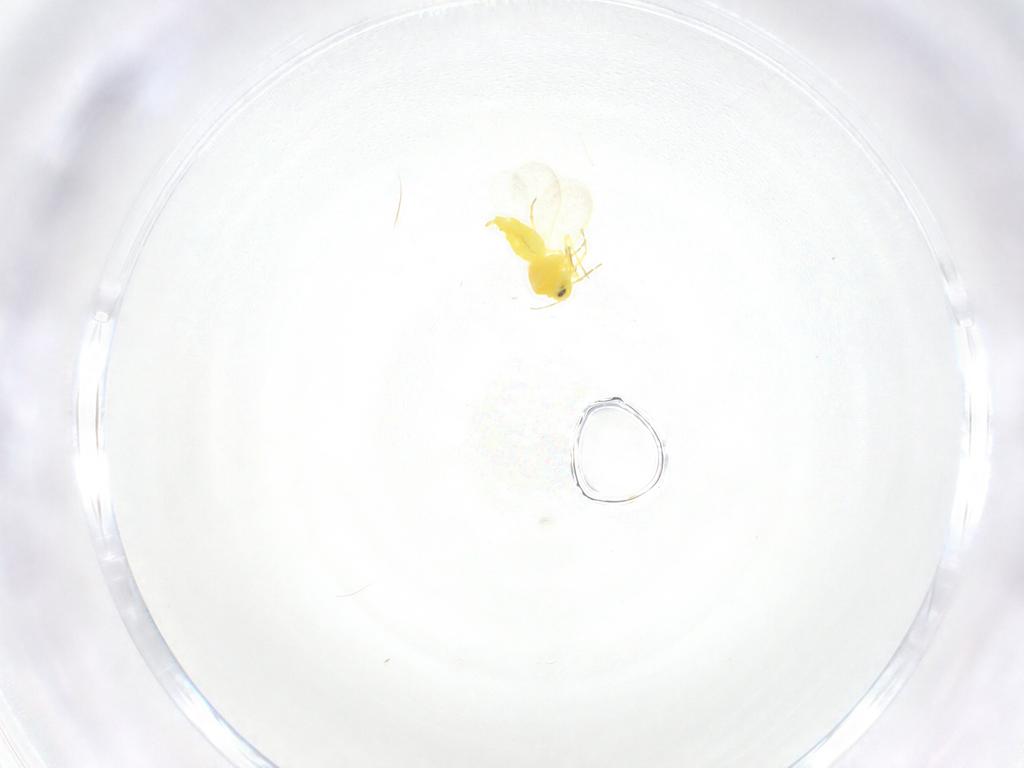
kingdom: Animalia
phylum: Arthropoda
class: Insecta
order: Hemiptera
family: Aleyrodidae
